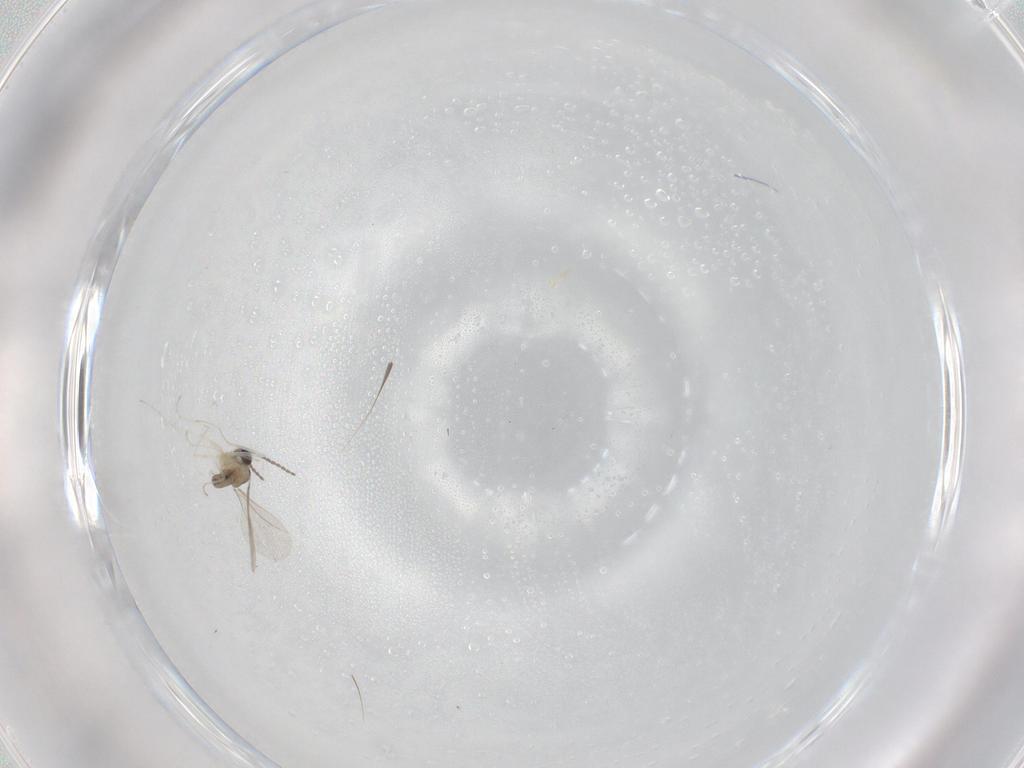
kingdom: Animalia
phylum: Arthropoda
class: Insecta
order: Diptera
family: Cecidomyiidae
